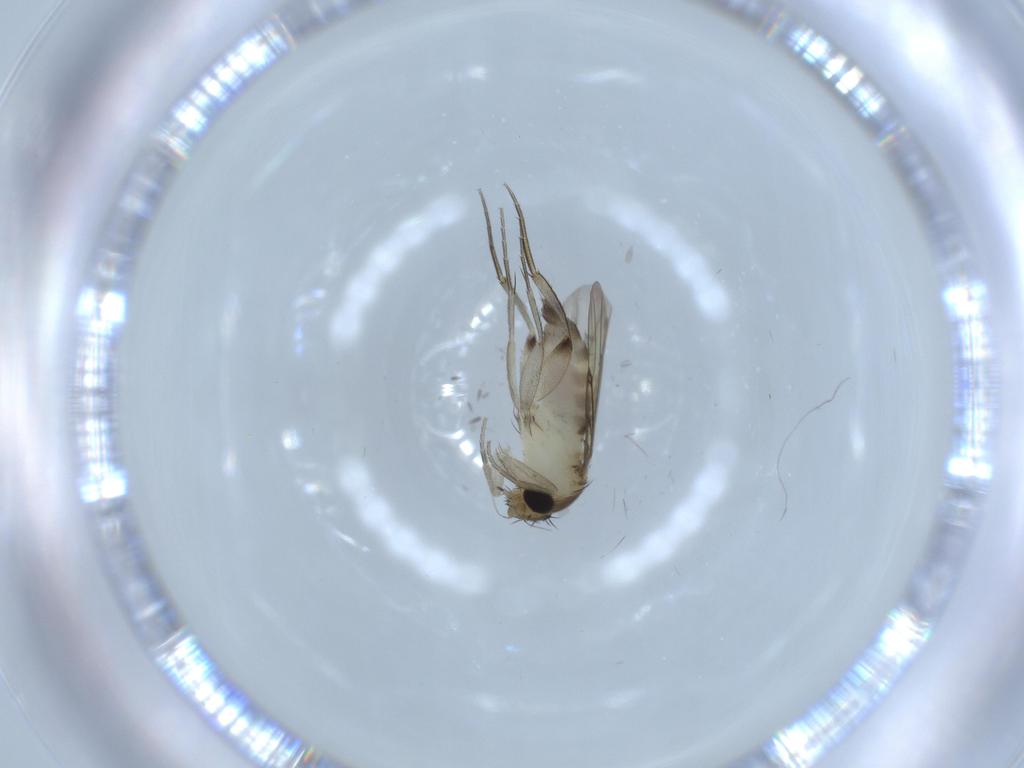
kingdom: Animalia
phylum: Arthropoda
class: Insecta
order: Diptera
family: Phoridae
